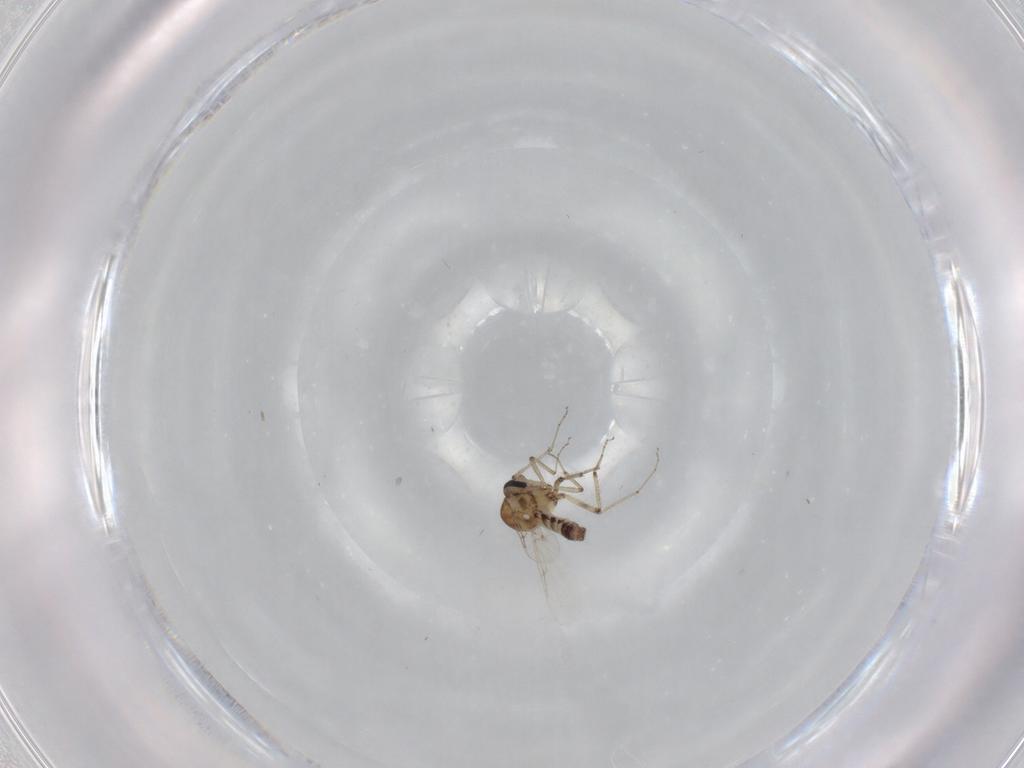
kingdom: Animalia
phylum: Arthropoda
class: Insecta
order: Diptera
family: Ceratopogonidae
